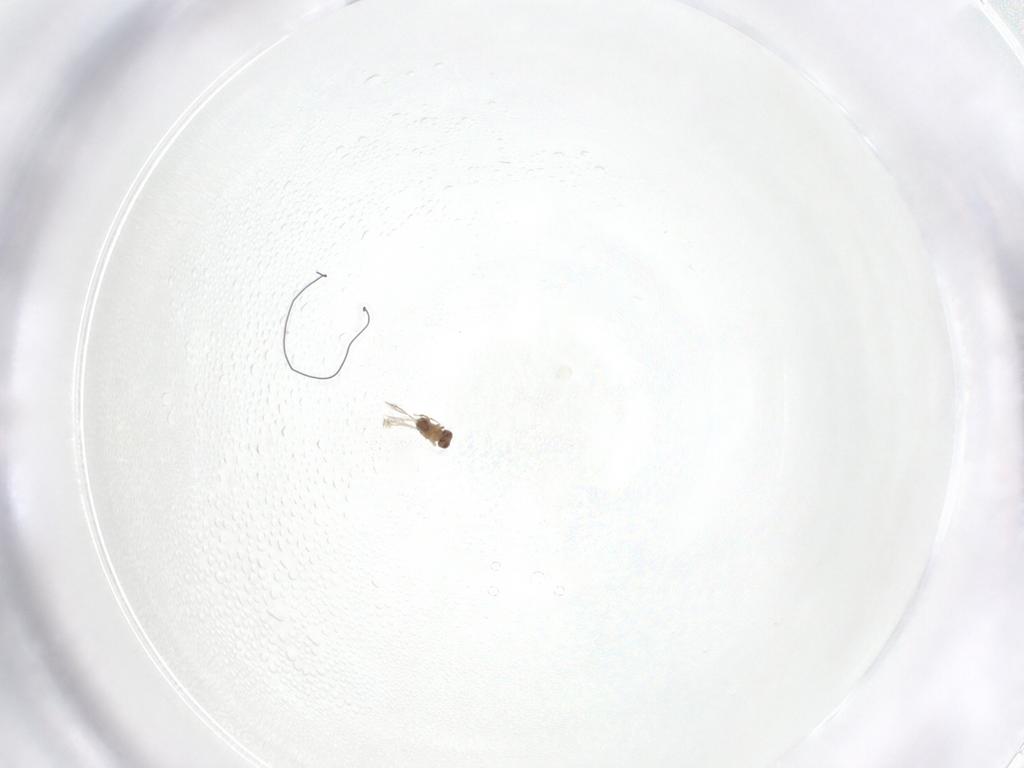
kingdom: Animalia
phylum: Arthropoda
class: Insecta
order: Hymenoptera
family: Mymaridae
